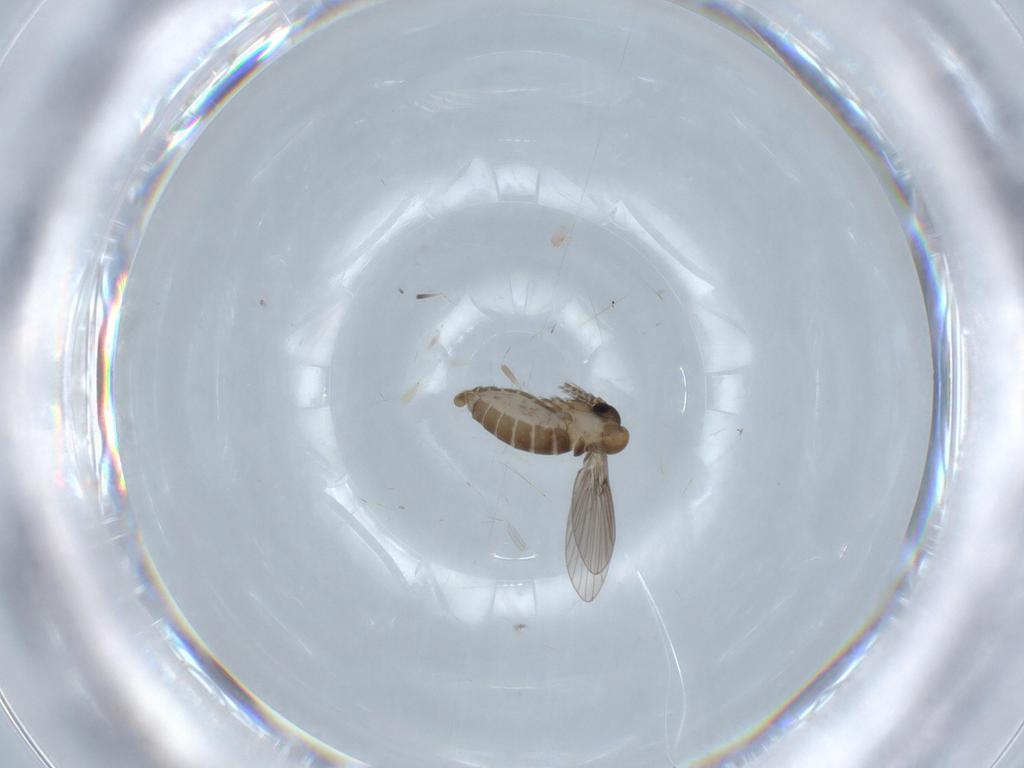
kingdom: Animalia
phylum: Arthropoda
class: Insecta
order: Diptera
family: Psychodidae
